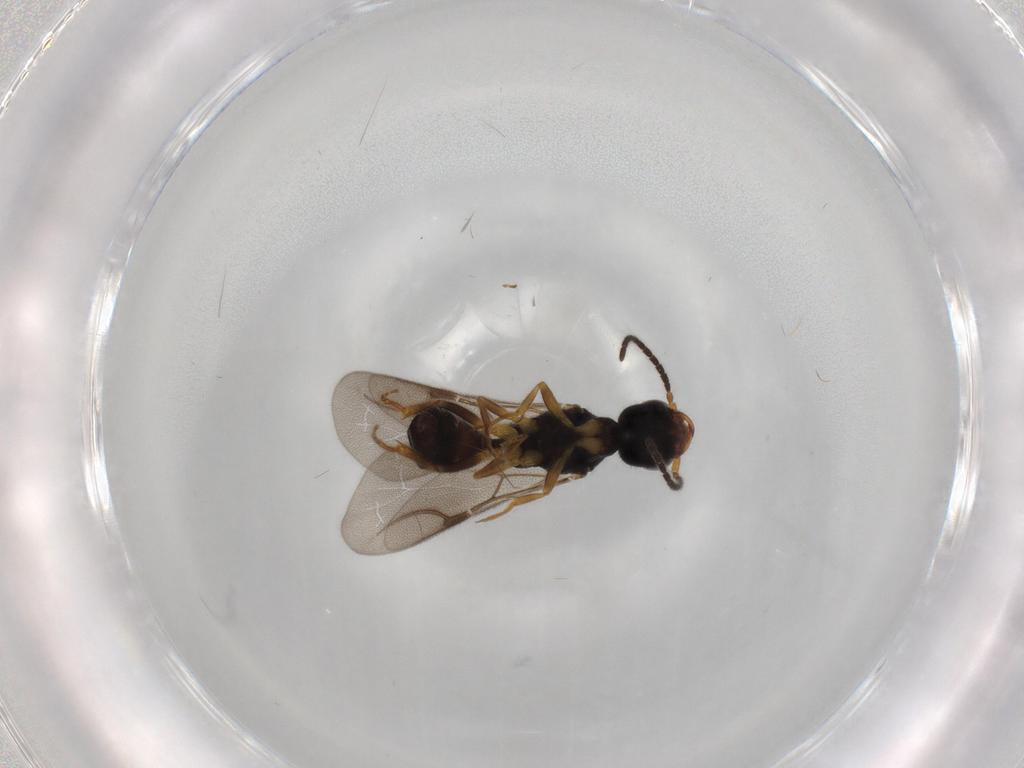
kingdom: Animalia
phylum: Arthropoda
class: Insecta
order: Hymenoptera
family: Bethylidae
